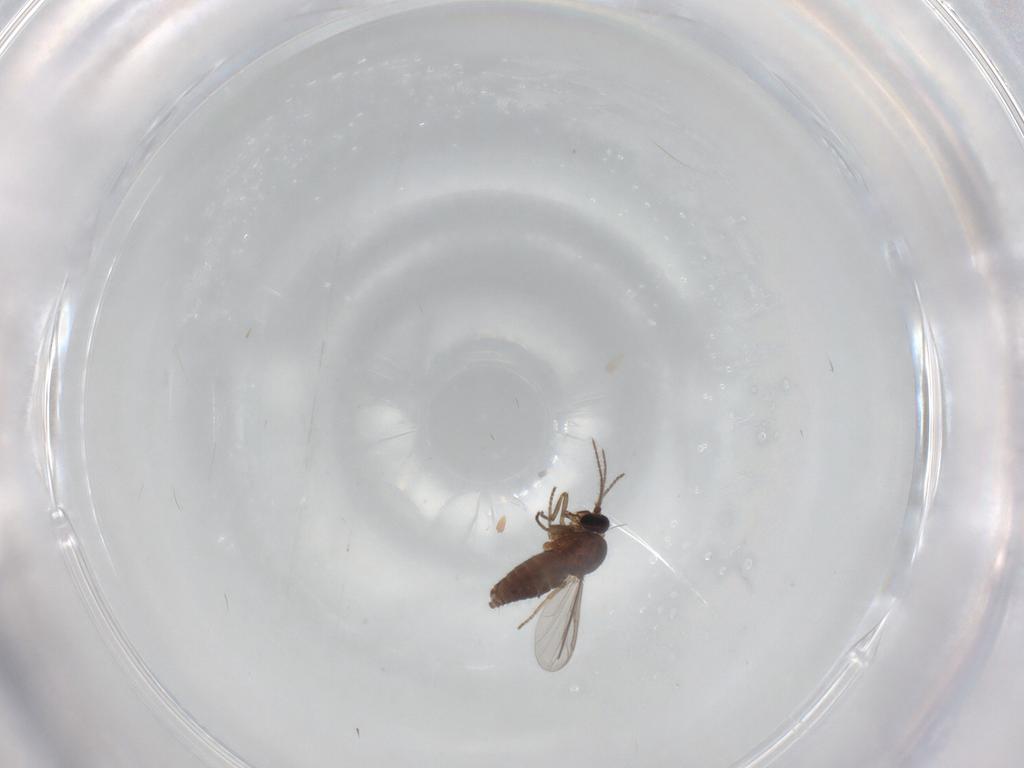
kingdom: Animalia
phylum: Arthropoda
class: Insecta
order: Diptera
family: Ceratopogonidae
